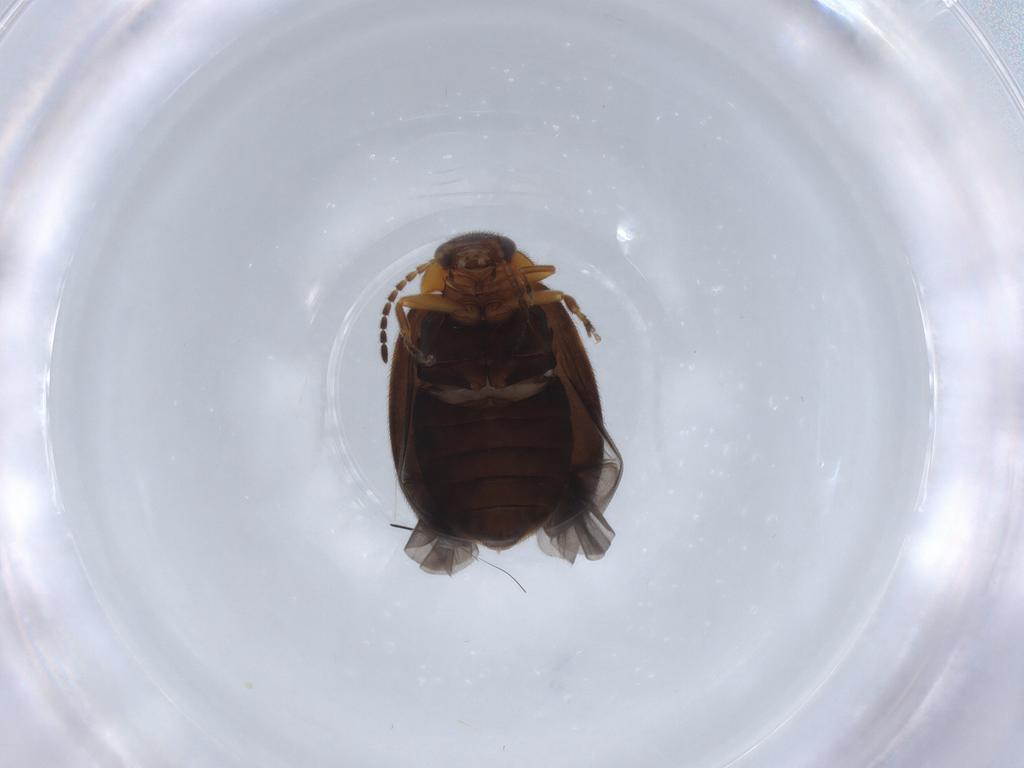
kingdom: Animalia
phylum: Arthropoda
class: Insecta
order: Coleoptera
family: Scirtidae
